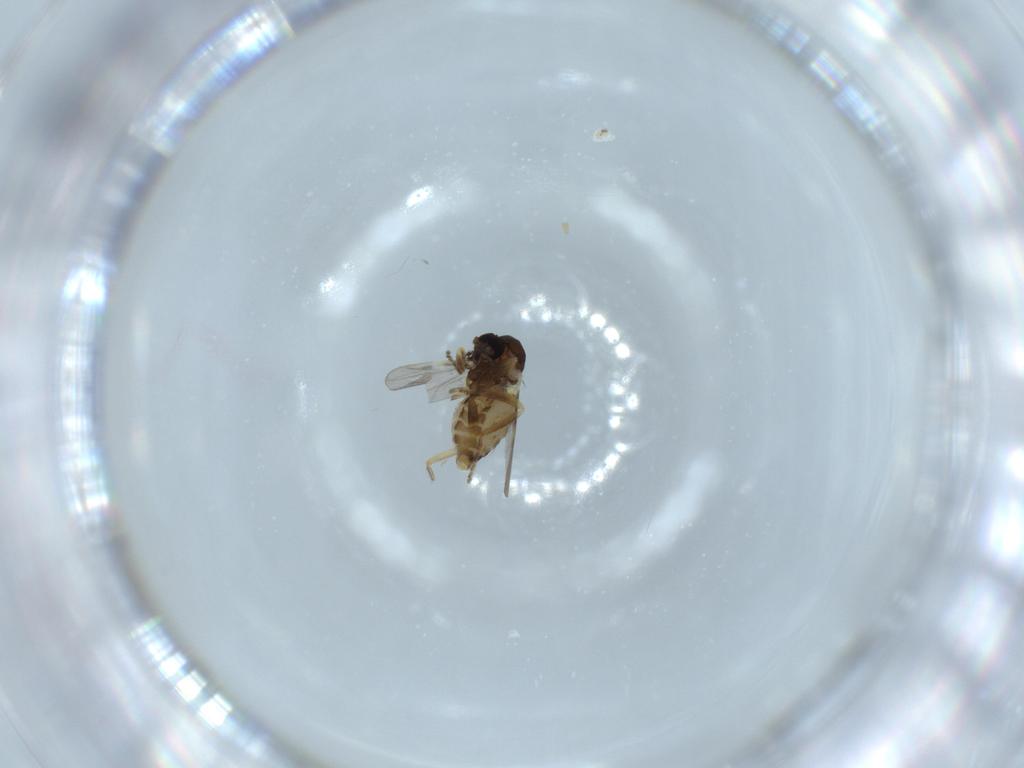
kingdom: Animalia
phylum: Arthropoda
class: Insecta
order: Diptera
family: Ceratopogonidae
